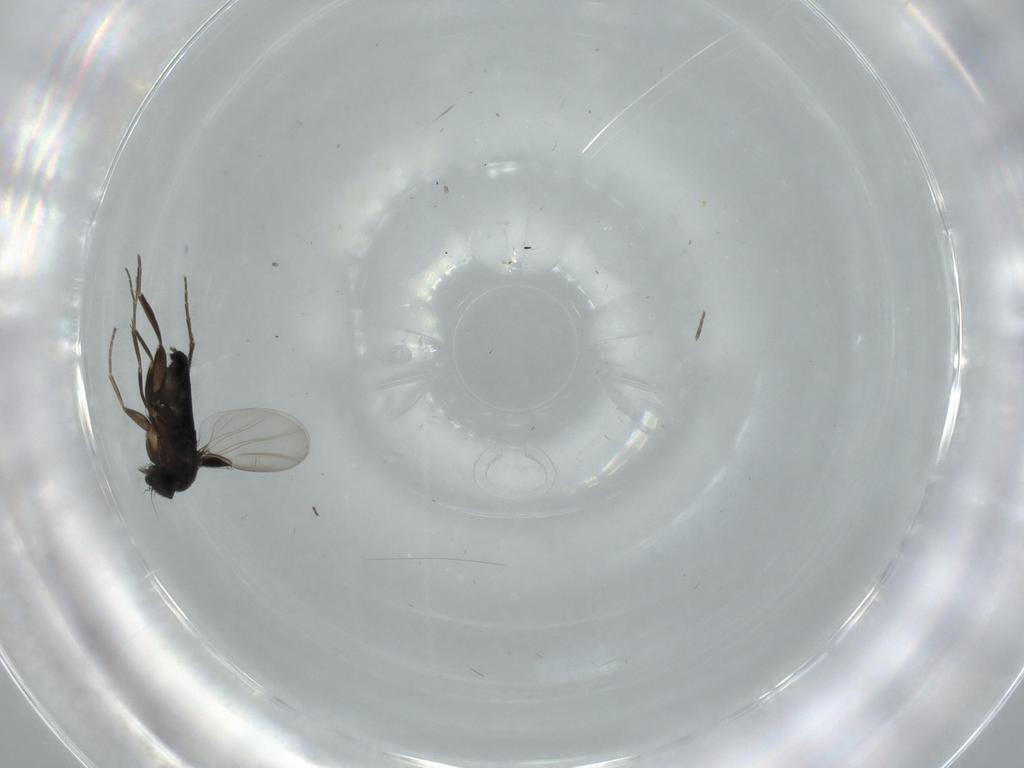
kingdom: Animalia
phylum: Arthropoda
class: Insecta
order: Diptera
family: Phoridae
